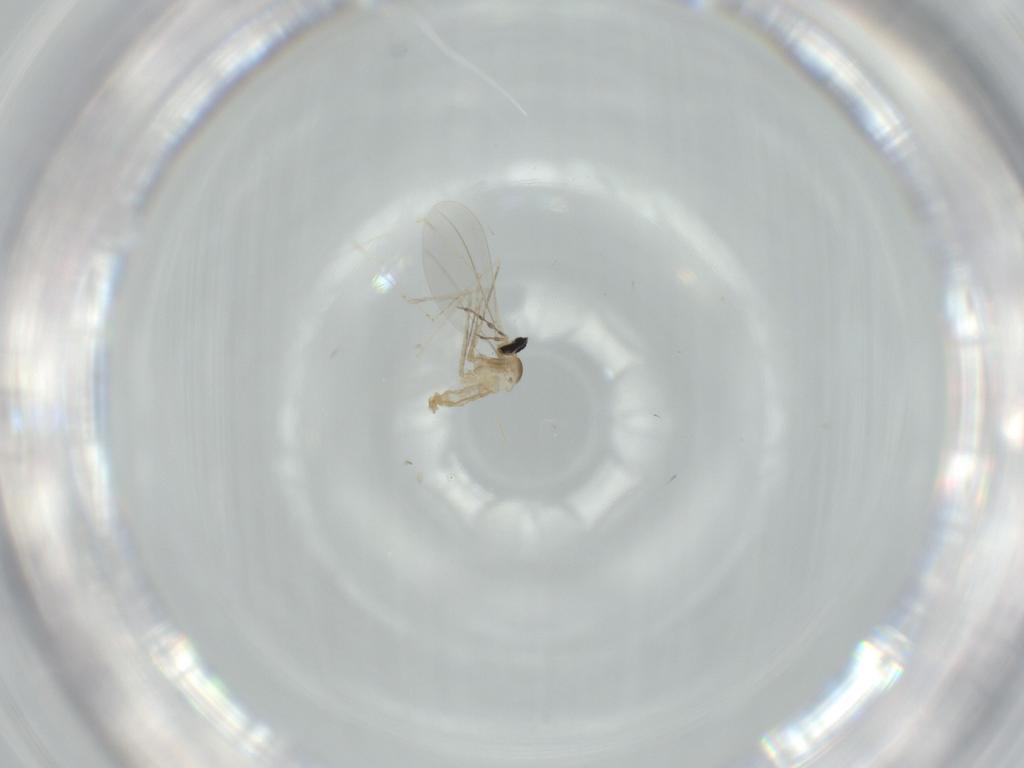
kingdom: Animalia
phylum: Arthropoda
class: Insecta
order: Diptera
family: Cecidomyiidae
